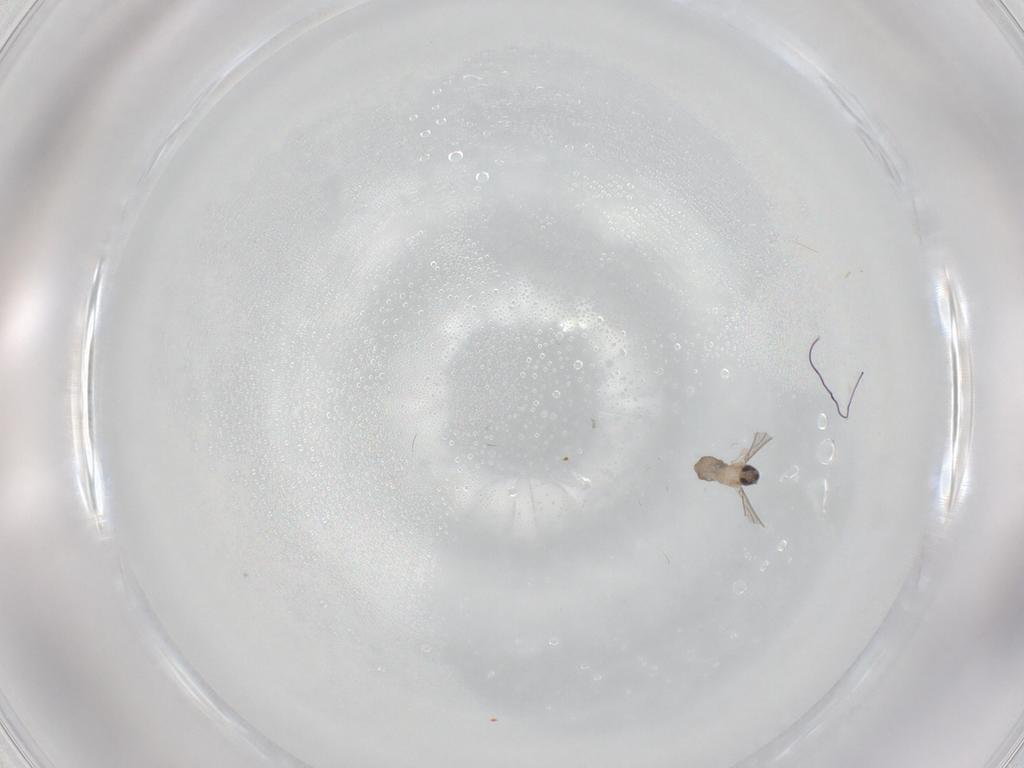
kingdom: Animalia
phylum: Arthropoda
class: Insecta
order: Diptera
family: Cecidomyiidae
